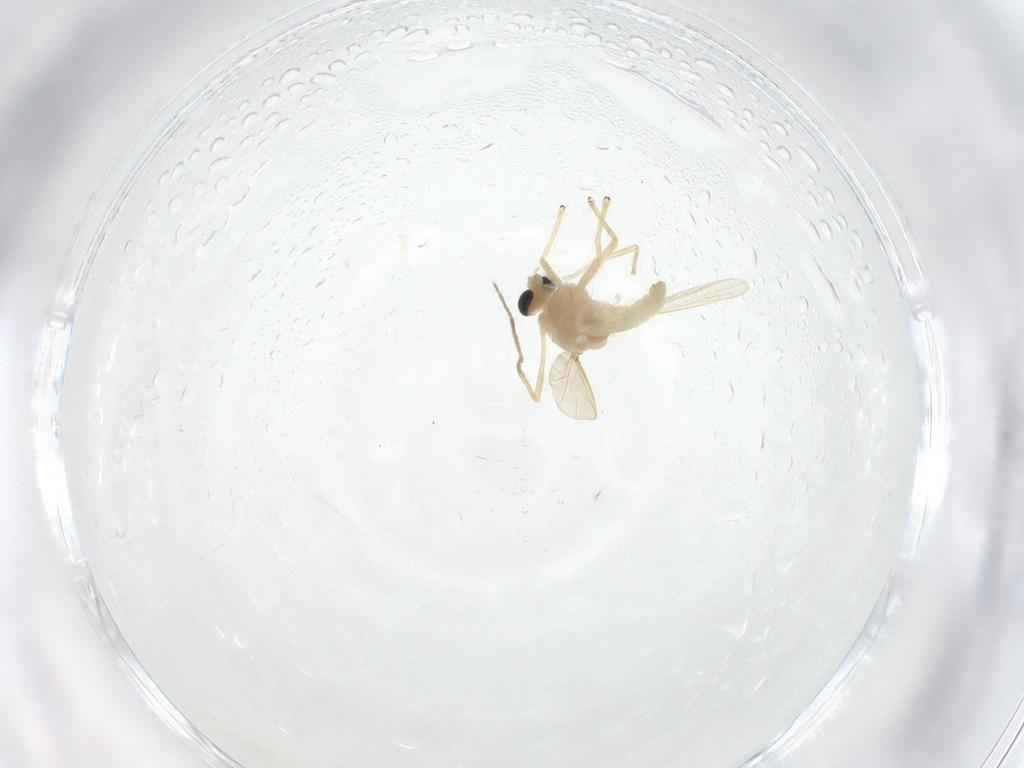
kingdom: Animalia
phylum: Arthropoda
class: Insecta
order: Diptera
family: Chironomidae
